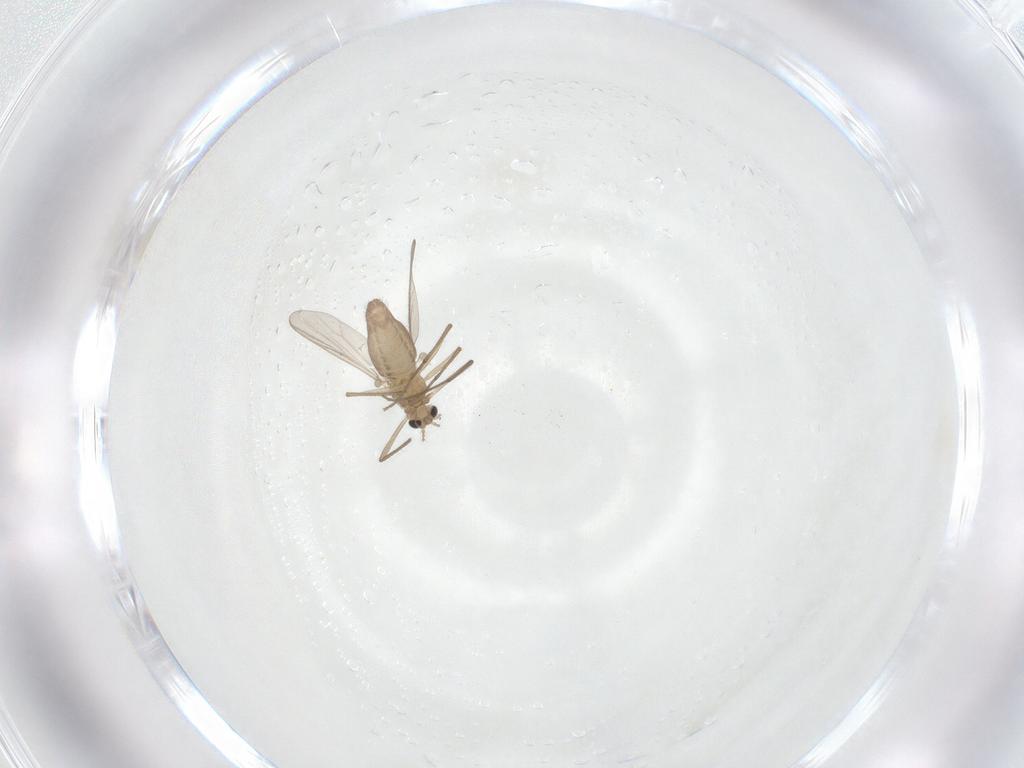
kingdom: Animalia
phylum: Arthropoda
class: Insecta
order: Diptera
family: Chironomidae
